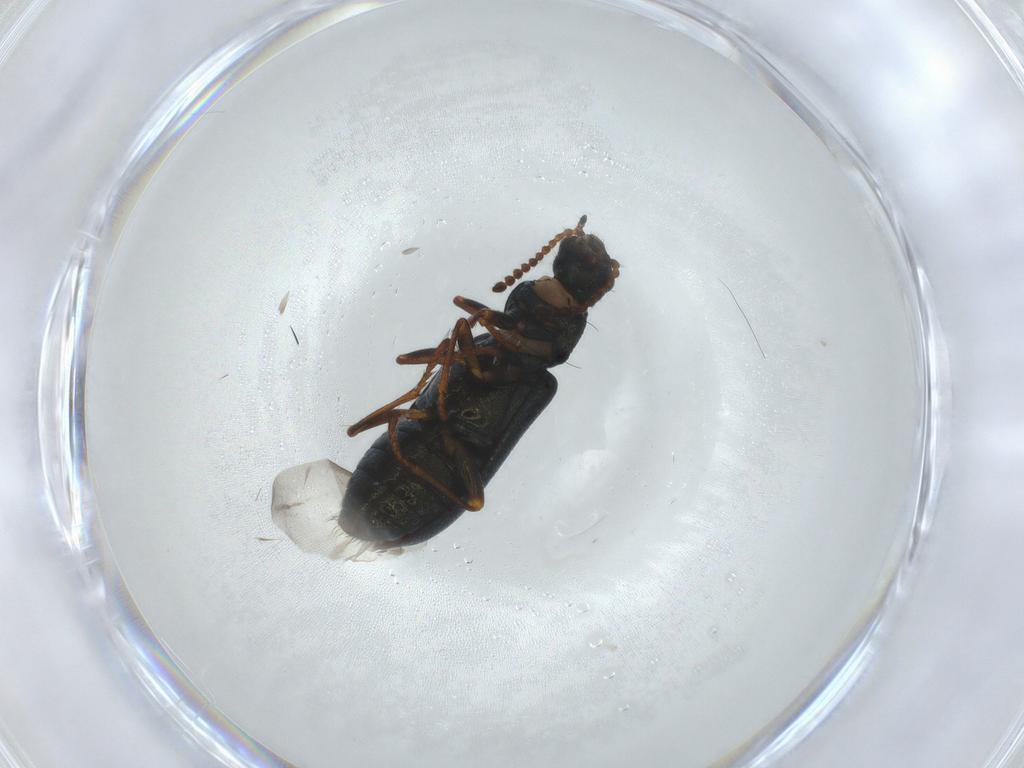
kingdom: Animalia
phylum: Arthropoda
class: Insecta
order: Coleoptera
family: Melyridae
